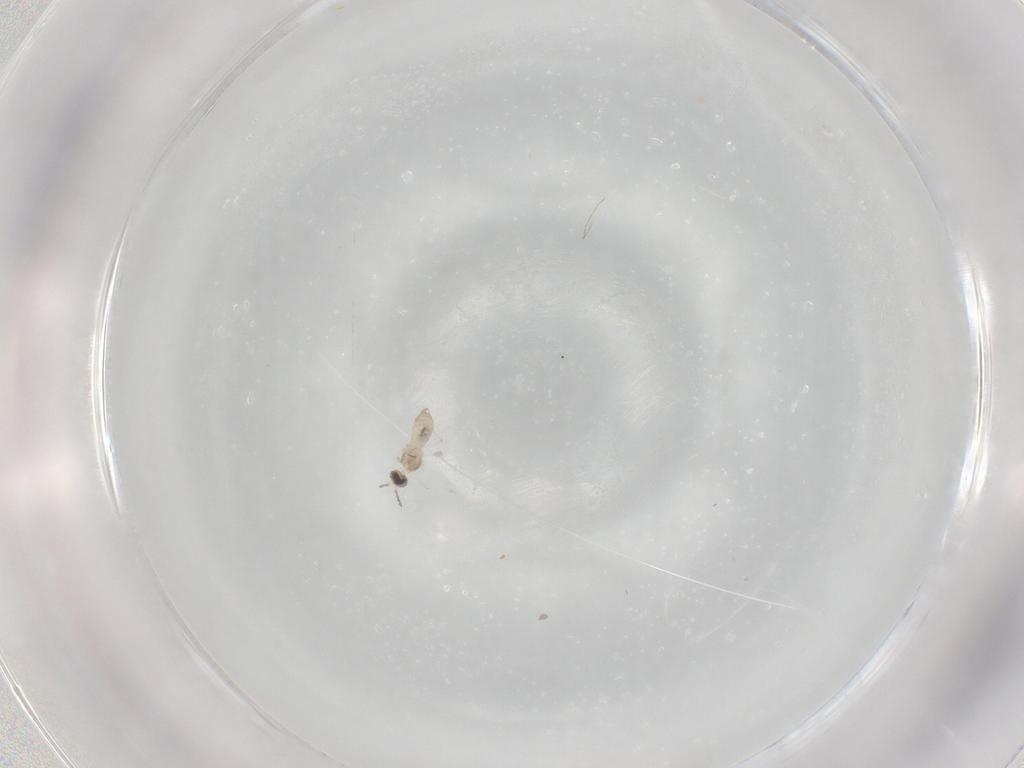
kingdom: Animalia
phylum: Arthropoda
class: Insecta
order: Diptera
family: Cecidomyiidae
